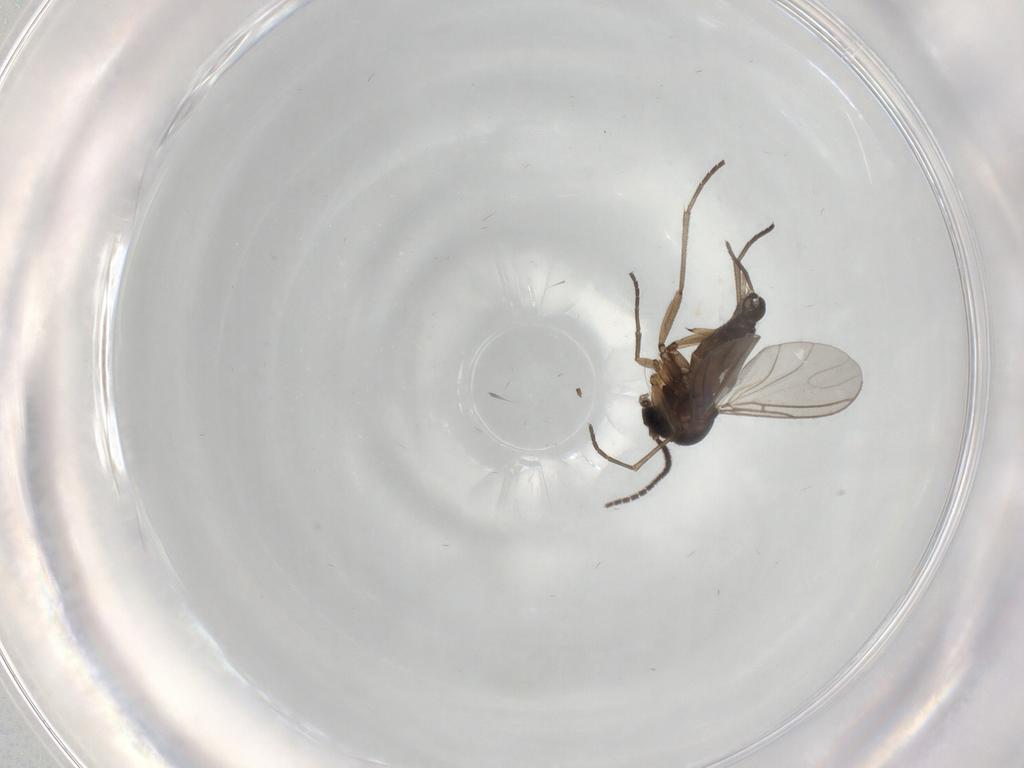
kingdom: Animalia
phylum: Arthropoda
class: Insecta
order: Diptera
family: Sciaridae
